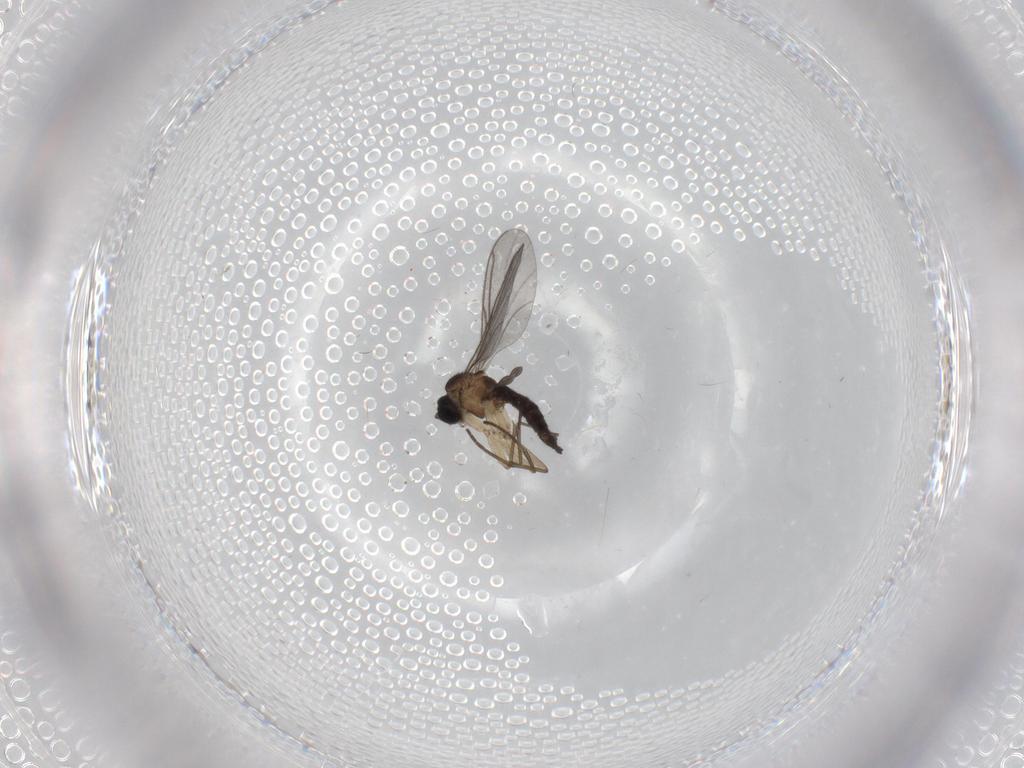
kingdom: Animalia
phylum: Arthropoda
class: Insecta
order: Diptera
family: Sciaridae
